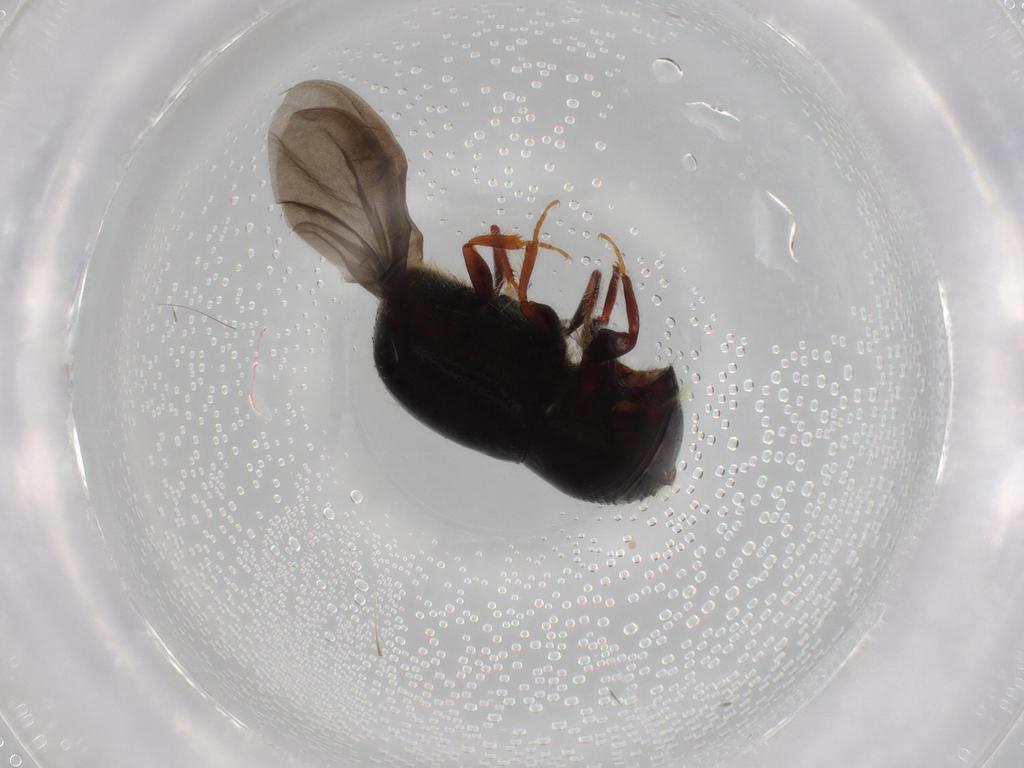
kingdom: Animalia
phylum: Arthropoda
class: Insecta
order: Coleoptera
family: Curculionidae
